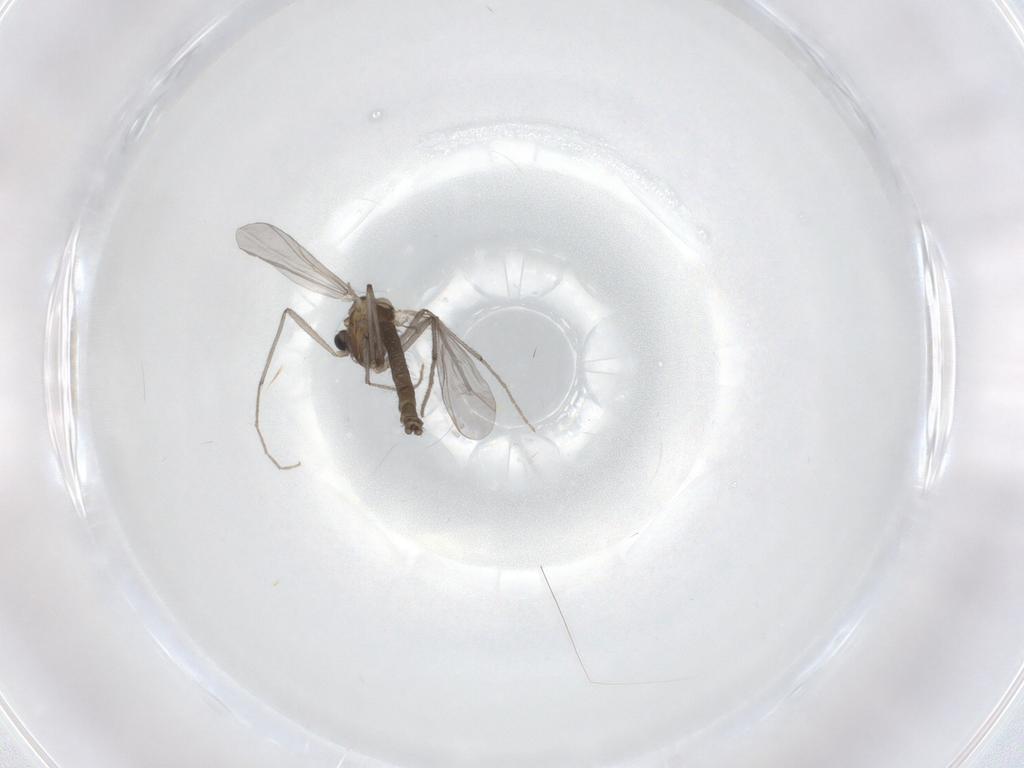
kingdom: Animalia
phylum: Arthropoda
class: Insecta
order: Diptera
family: Chironomidae
